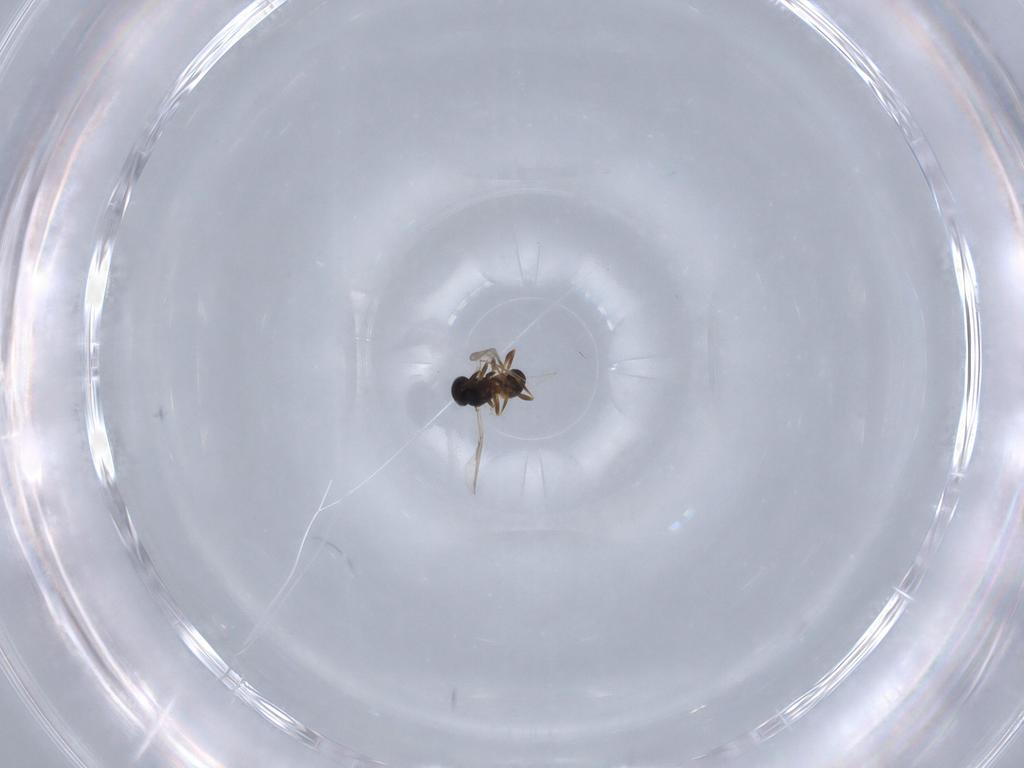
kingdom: Animalia
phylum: Arthropoda
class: Insecta
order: Hymenoptera
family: Platygastridae
